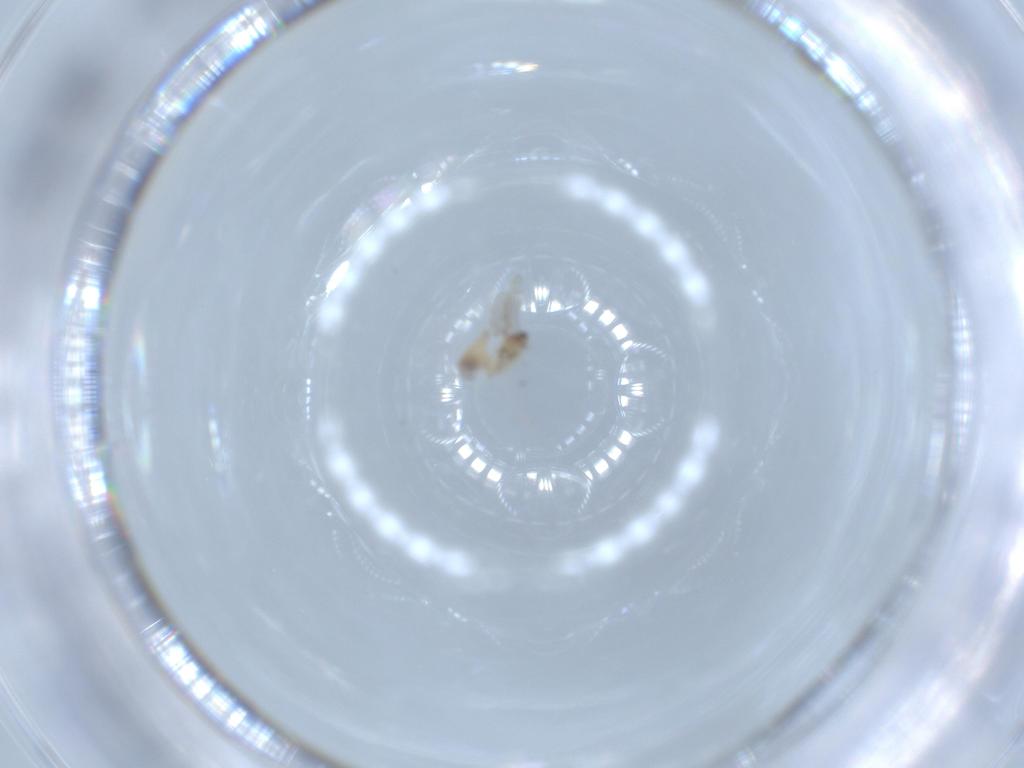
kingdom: Animalia
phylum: Arthropoda
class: Insecta
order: Diptera
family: Cecidomyiidae
